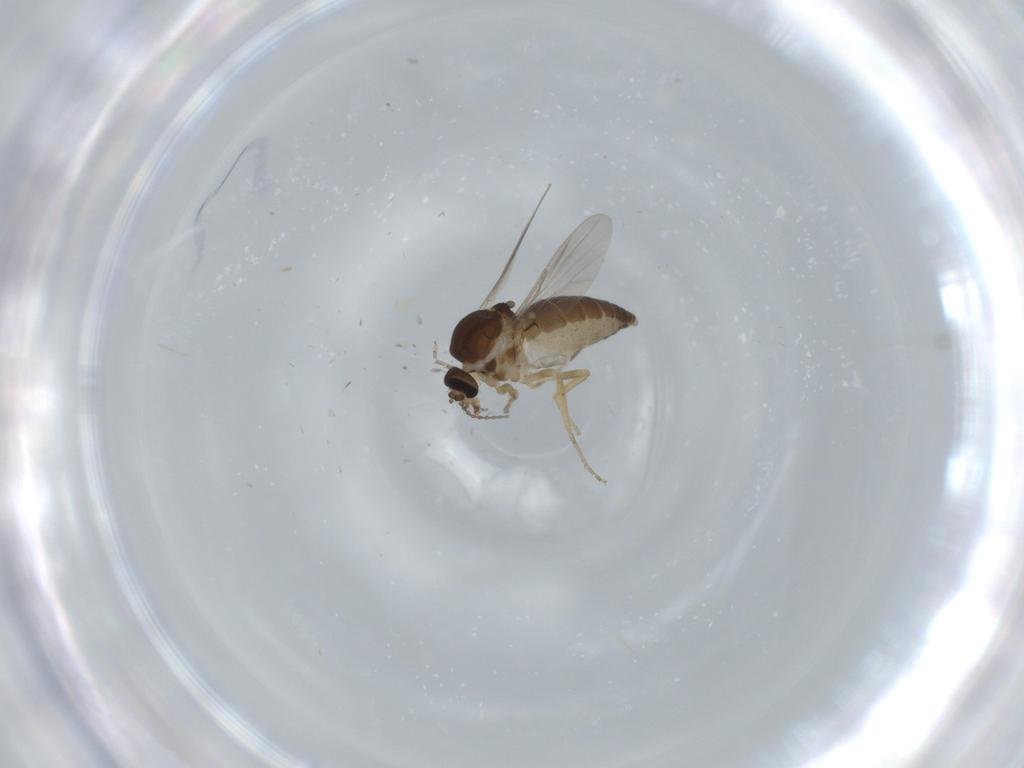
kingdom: Animalia
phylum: Arthropoda
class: Insecta
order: Diptera
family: Ceratopogonidae
